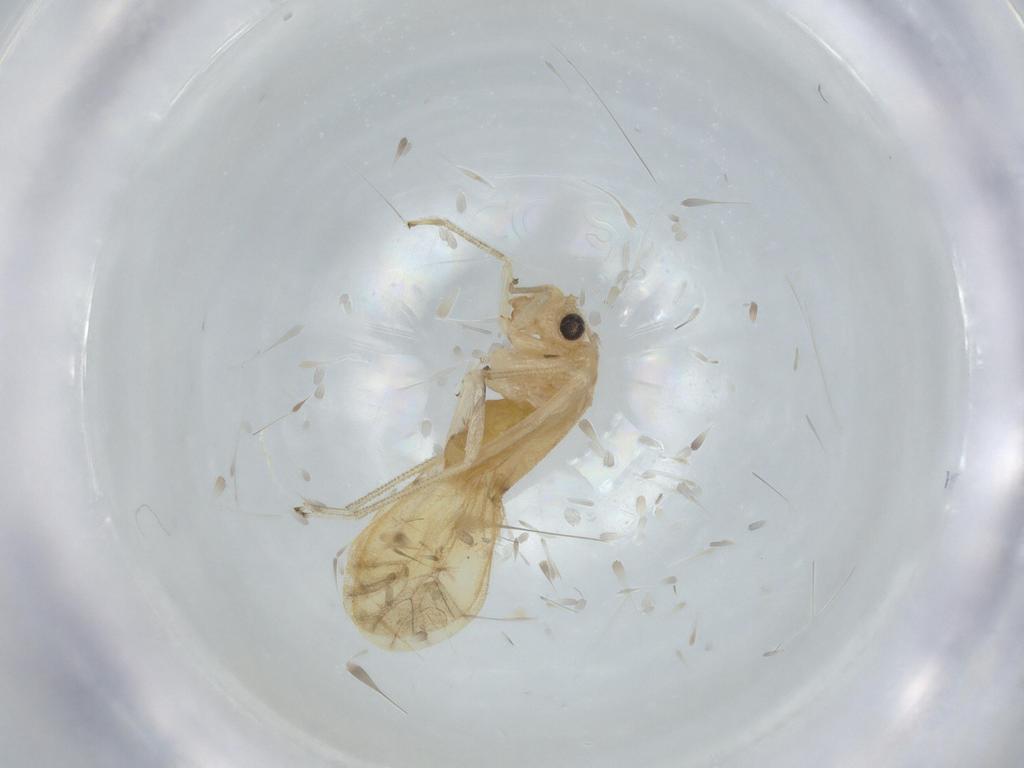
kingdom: Animalia
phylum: Arthropoda
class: Insecta
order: Psocodea
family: Caeciliusidae
